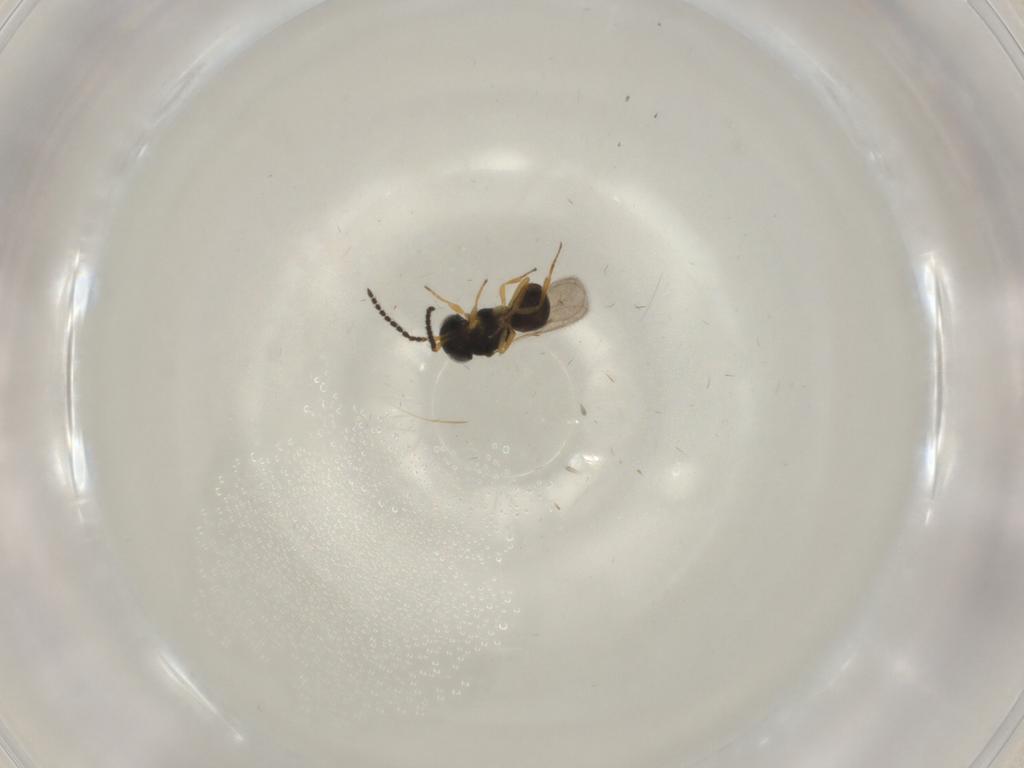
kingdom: Animalia
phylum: Arthropoda
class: Insecta
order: Hymenoptera
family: Scelionidae
